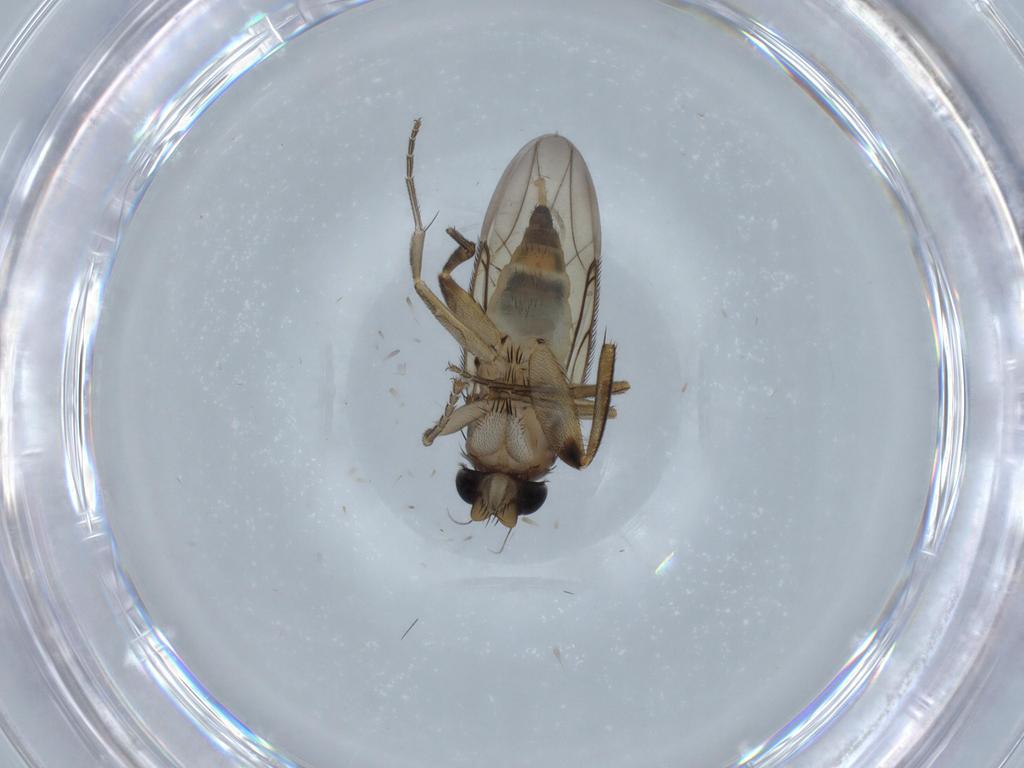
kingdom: Animalia
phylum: Arthropoda
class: Insecta
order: Diptera
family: Phoridae
